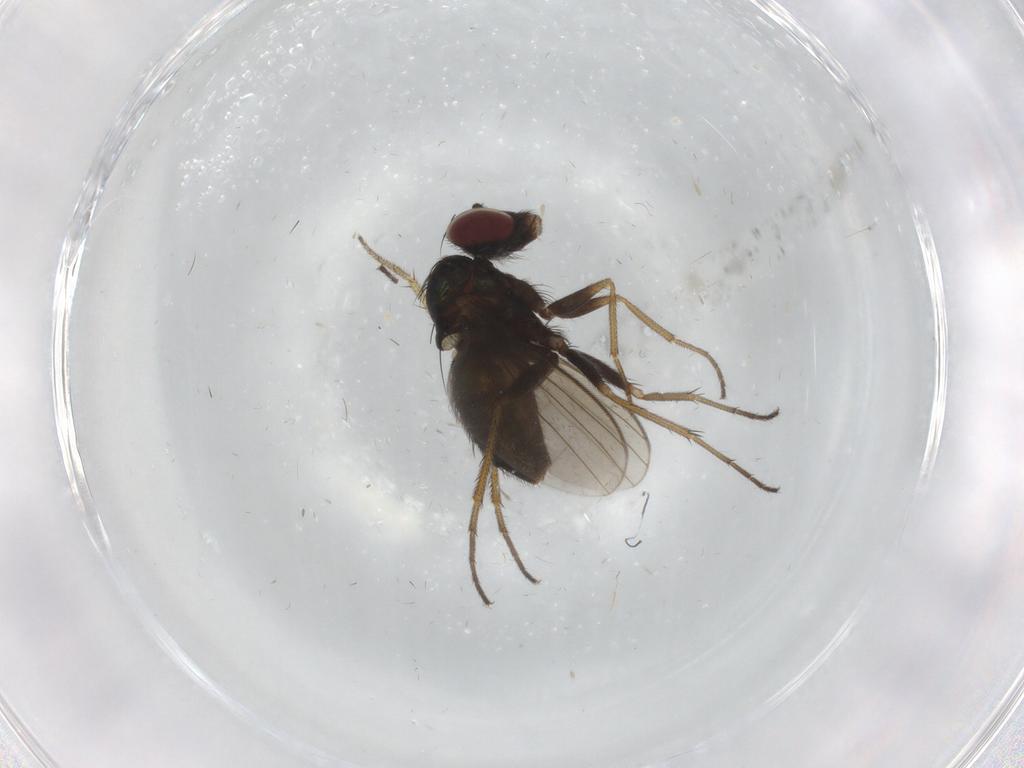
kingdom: Animalia
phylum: Arthropoda
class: Insecta
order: Diptera
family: Dolichopodidae
